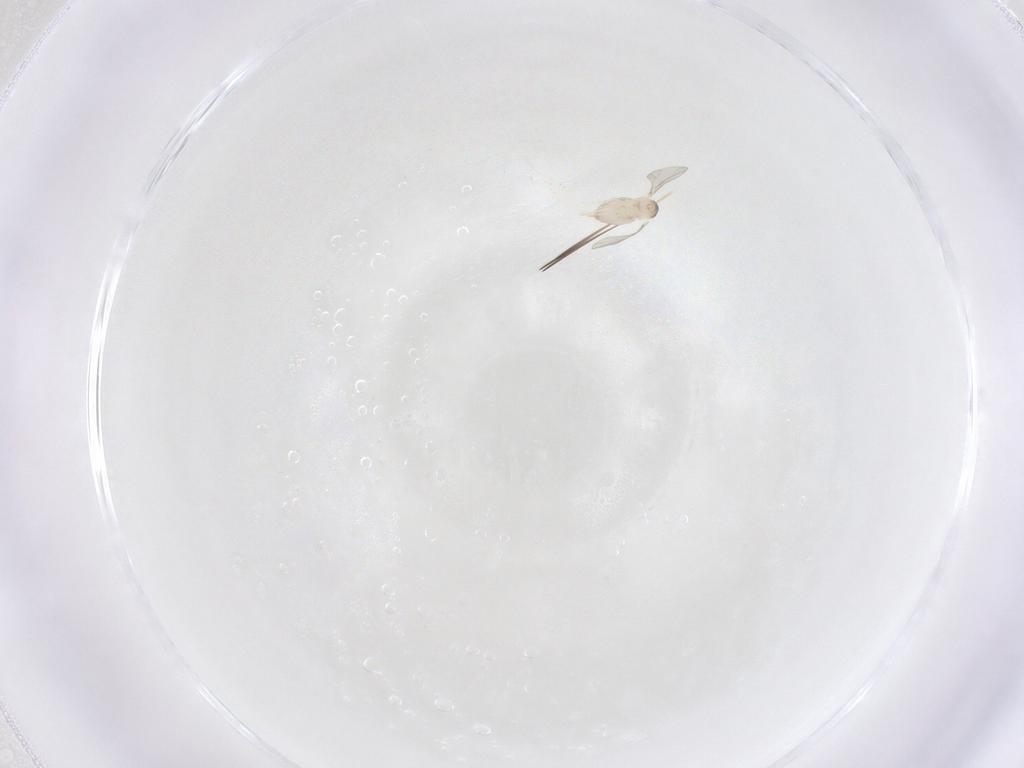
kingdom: Animalia
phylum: Arthropoda
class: Insecta
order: Diptera
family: Cecidomyiidae
